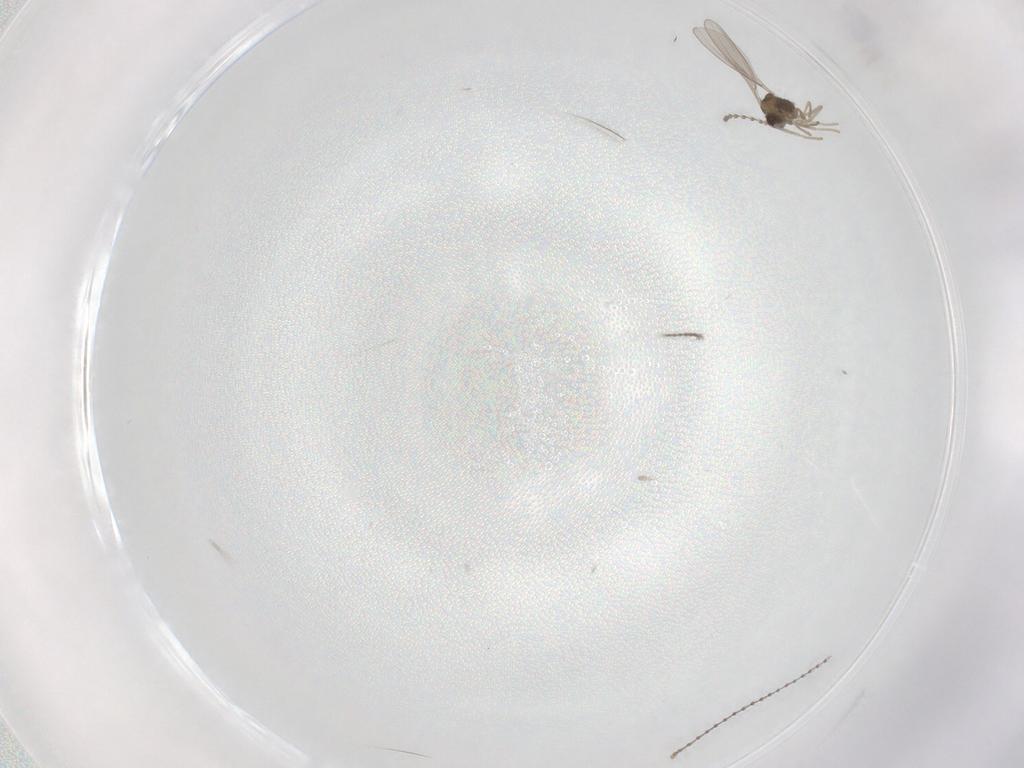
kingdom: Animalia
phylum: Arthropoda
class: Insecta
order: Diptera
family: Cecidomyiidae
